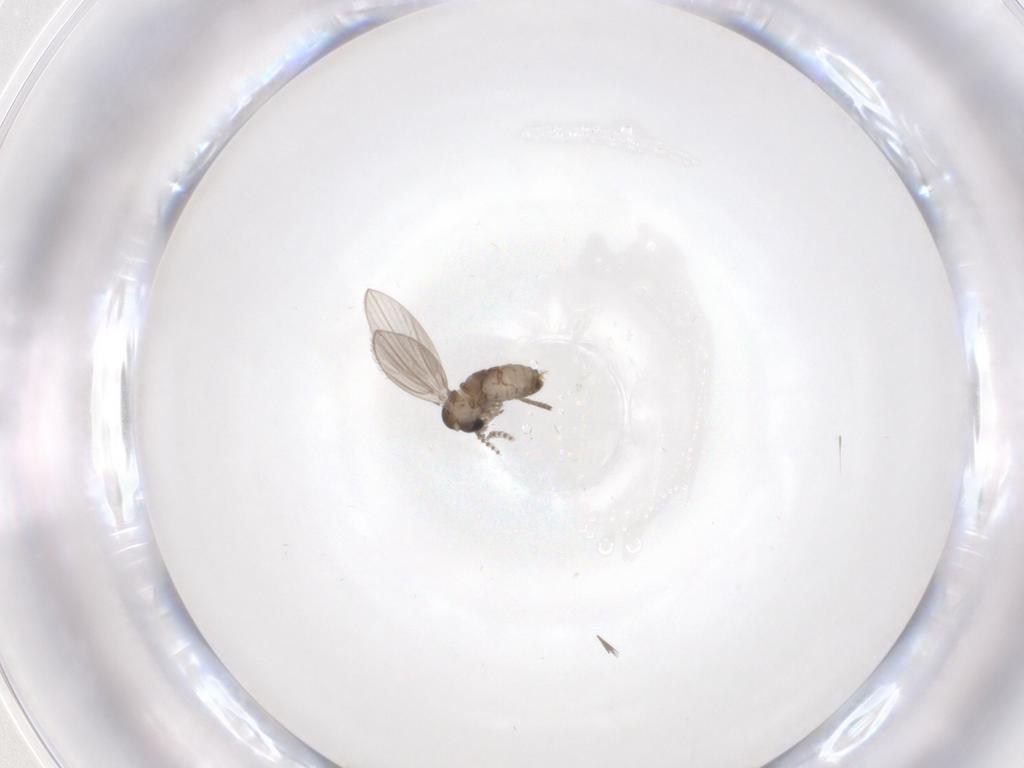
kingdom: Animalia
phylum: Arthropoda
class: Insecta
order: Diptera
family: Psychodidae
